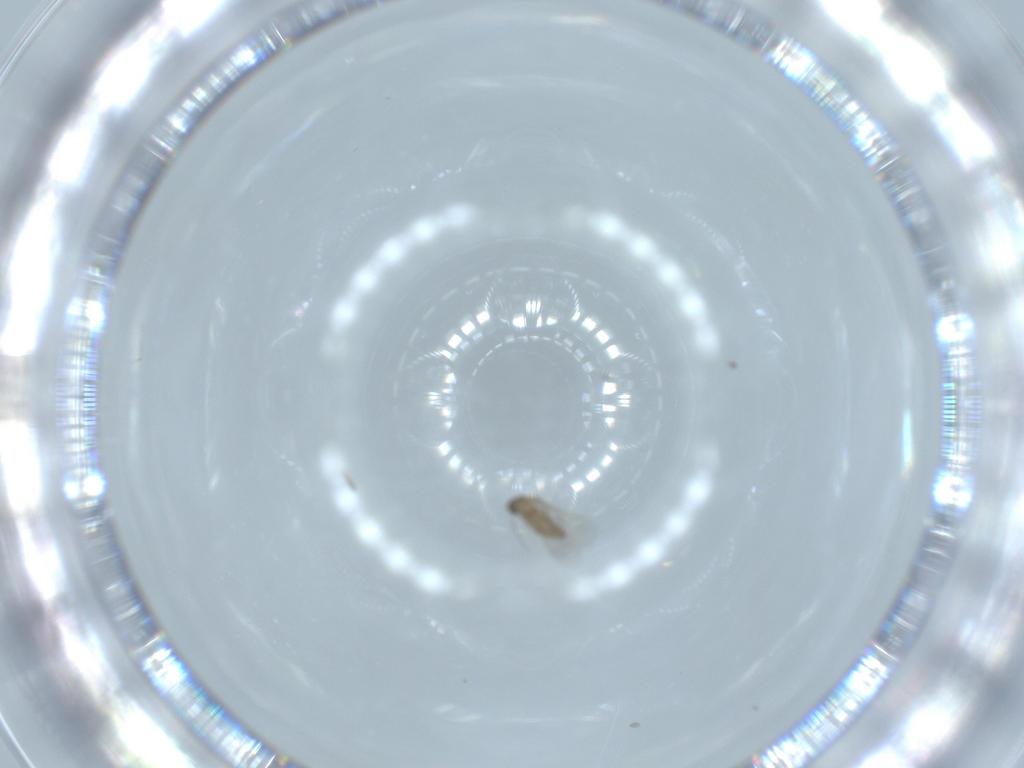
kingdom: Animalia
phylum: Arthropoda
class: Insecta
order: Diptera
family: Cecidomyiidae
